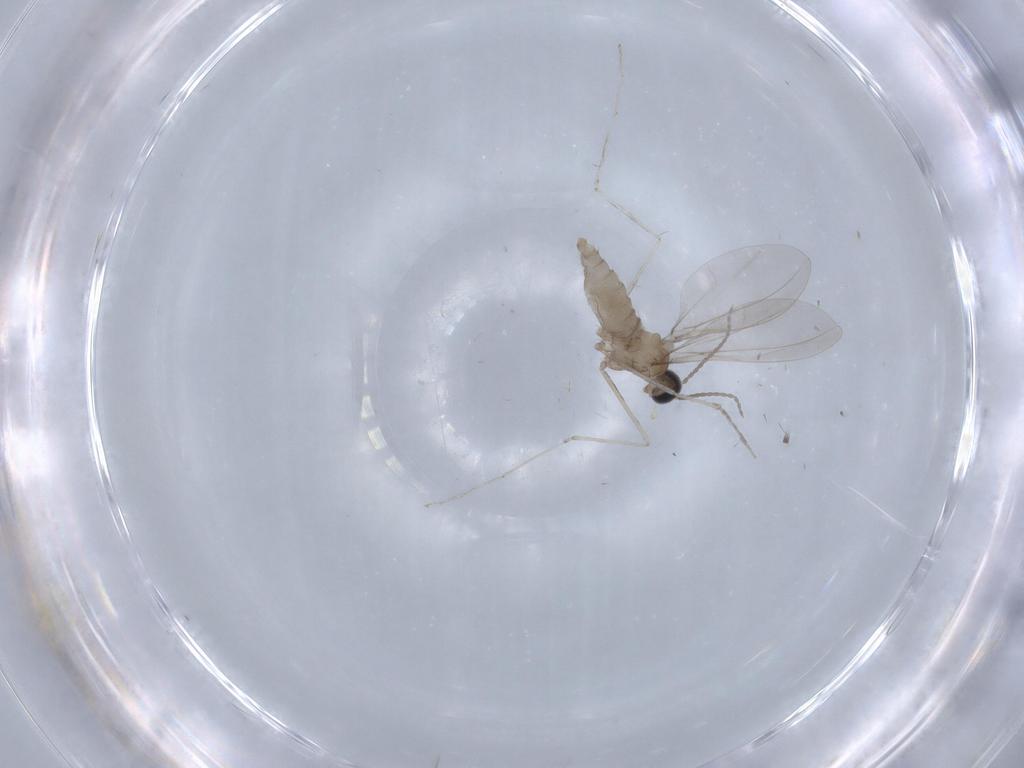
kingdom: Animalia
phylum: Arthropoda
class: Insecta
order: Diptera
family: Cecidomyiidae
